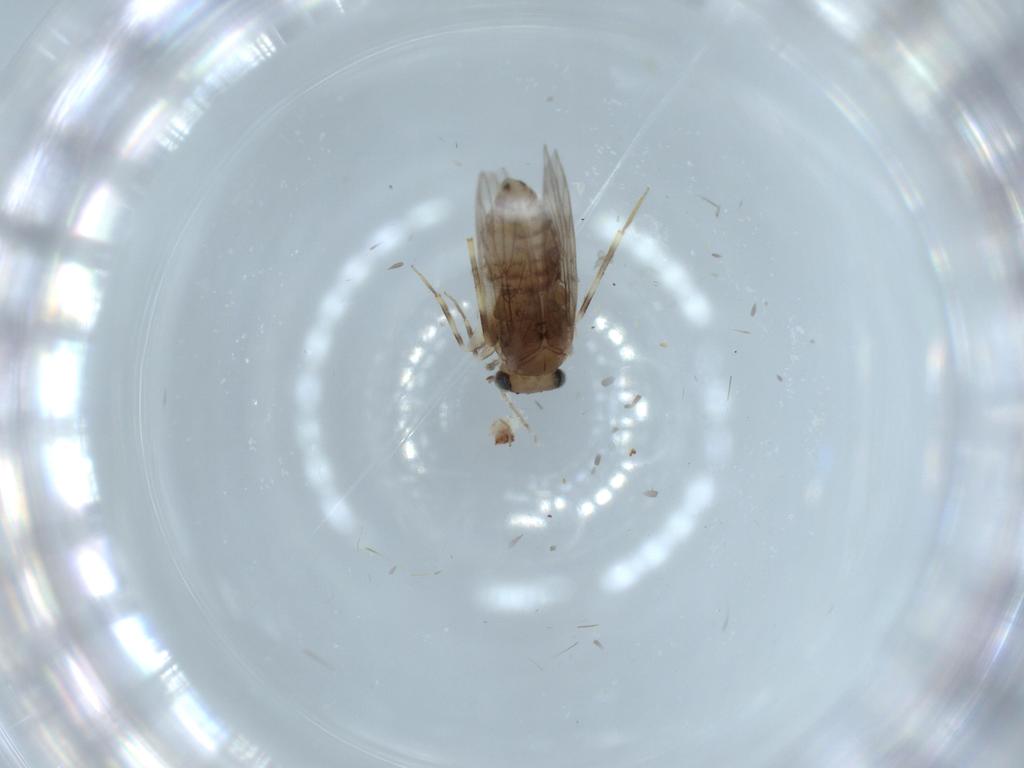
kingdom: Animalia
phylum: Arthropoda
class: Insecta
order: Psocodea
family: Lepidopsocidae
